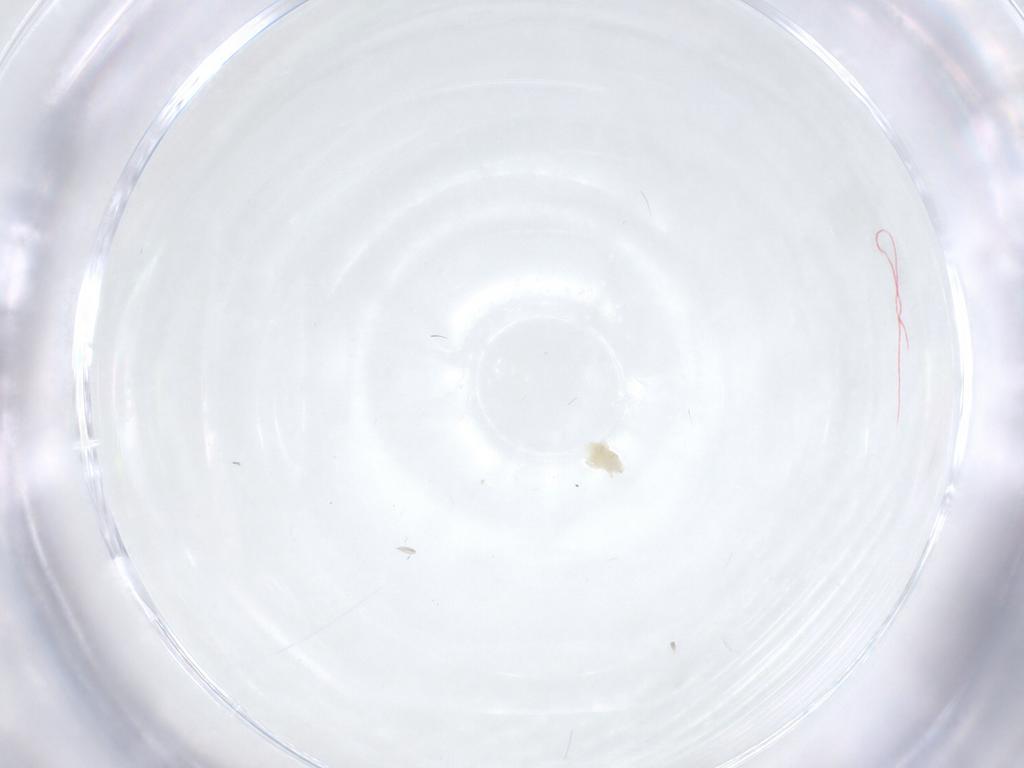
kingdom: Animalia
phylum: Arthropoda
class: Arachnida
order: Trombidiformes
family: Eupodidae
